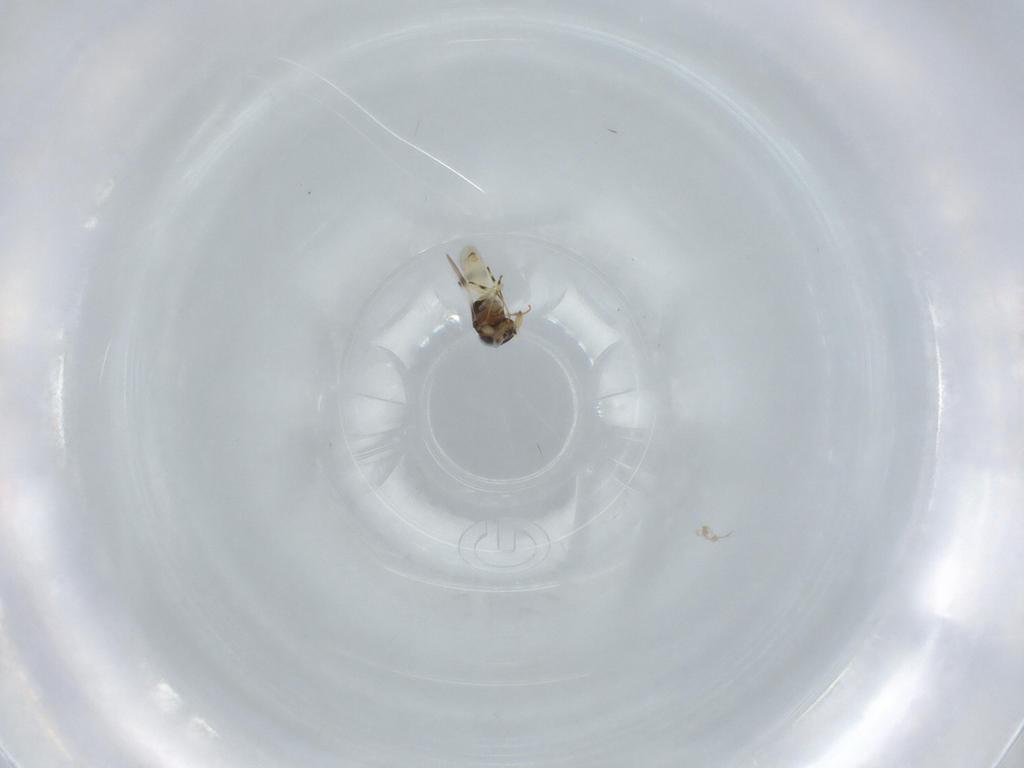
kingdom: Animalia
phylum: Arthropoda
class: Insecta
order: Hymenoptera
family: Scelionidae
